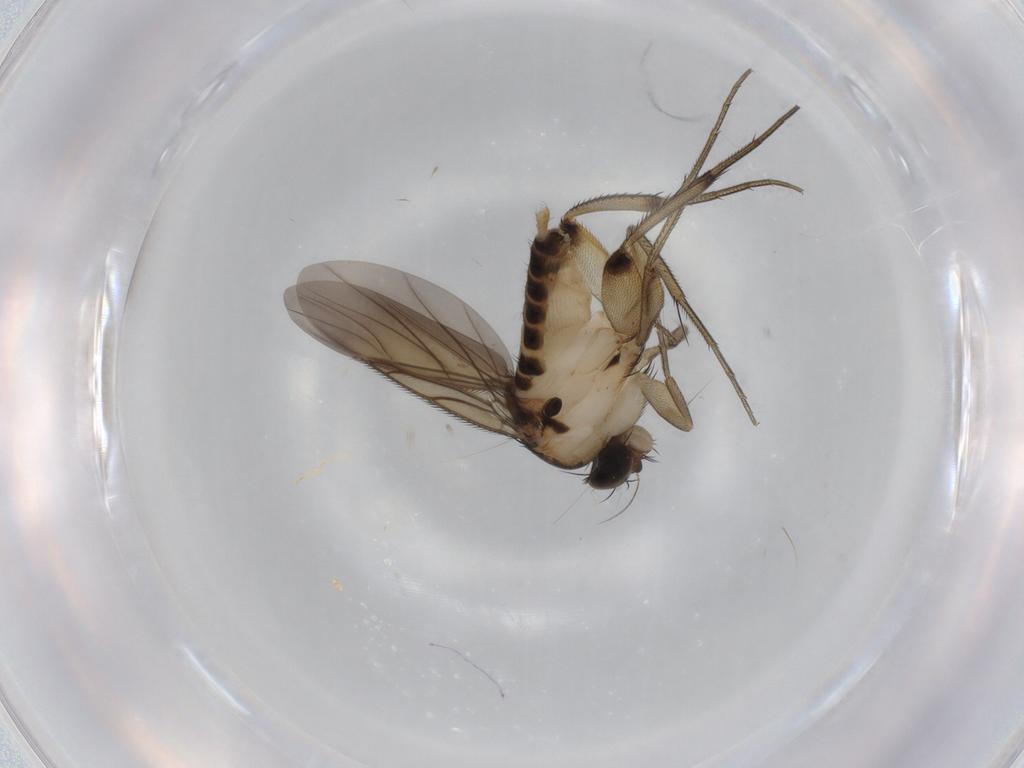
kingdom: Animalia
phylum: Arthropoda
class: Insecta
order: Diptera
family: Phoridae
